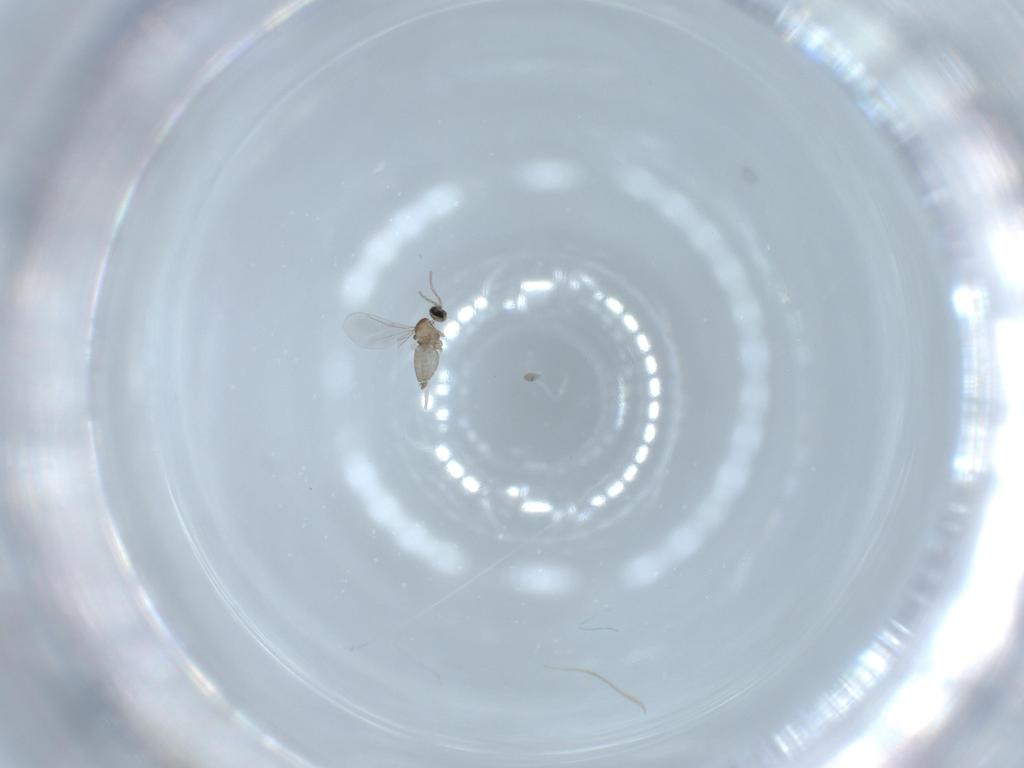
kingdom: Animalia
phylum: Arthropoda
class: Insecta
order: Diptera
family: Cecidomyiidae
